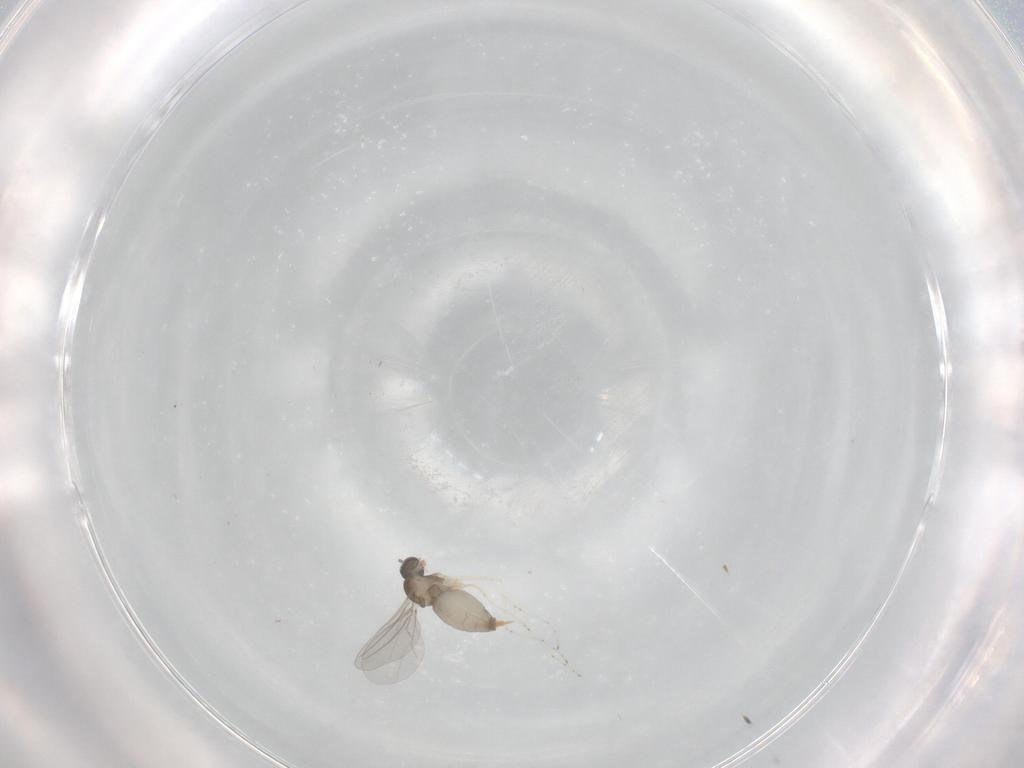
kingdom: Animalia
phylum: Arthropoda
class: Insecta
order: Diptera
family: Cecidomyiidae
